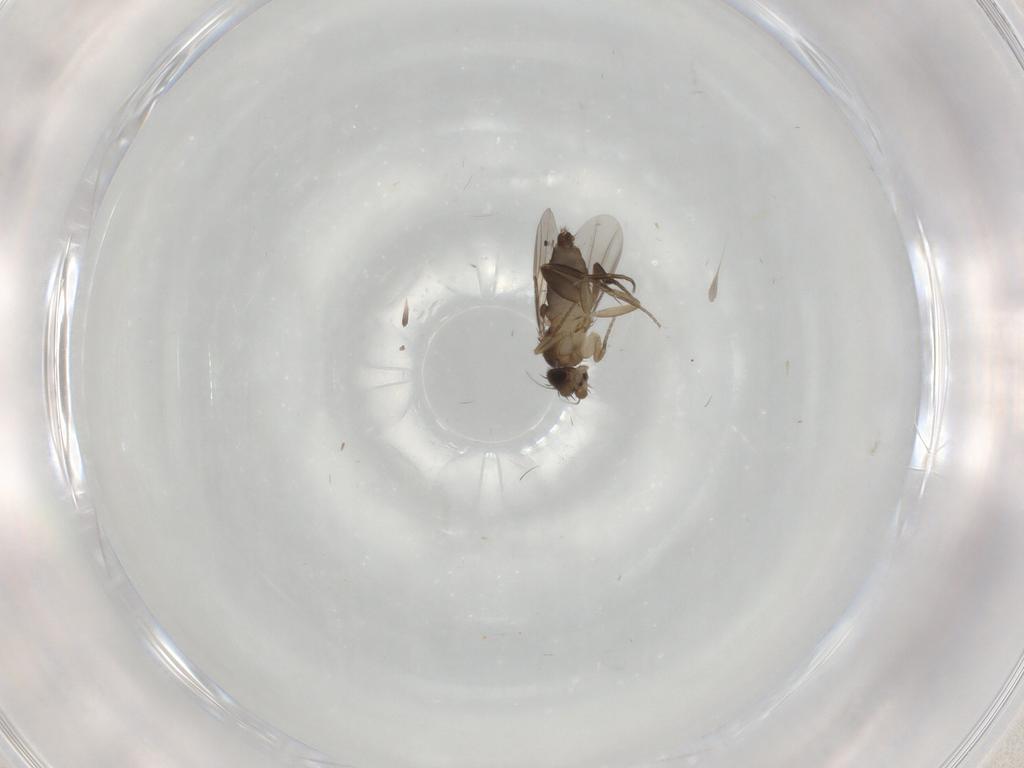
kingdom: Animalia
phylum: Arthropoda
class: Insecta
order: Diptera
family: Phoridae
